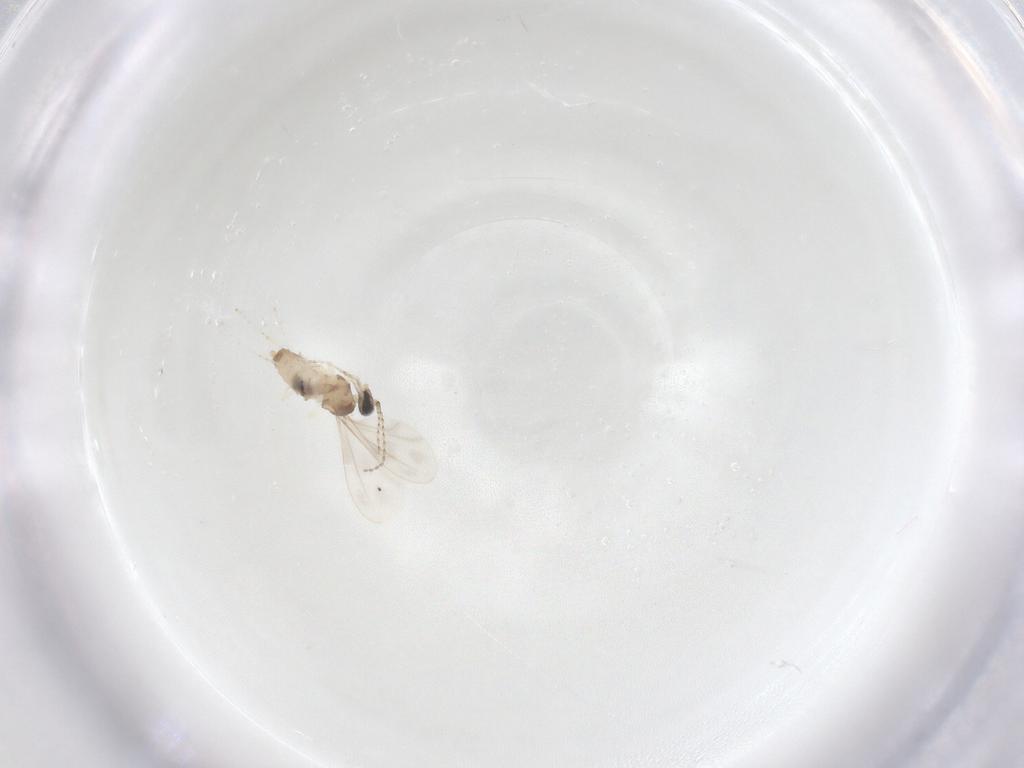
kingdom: Animalia
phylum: Arthropoda
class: Insecta
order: Diptera
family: Cecidomyiidae
